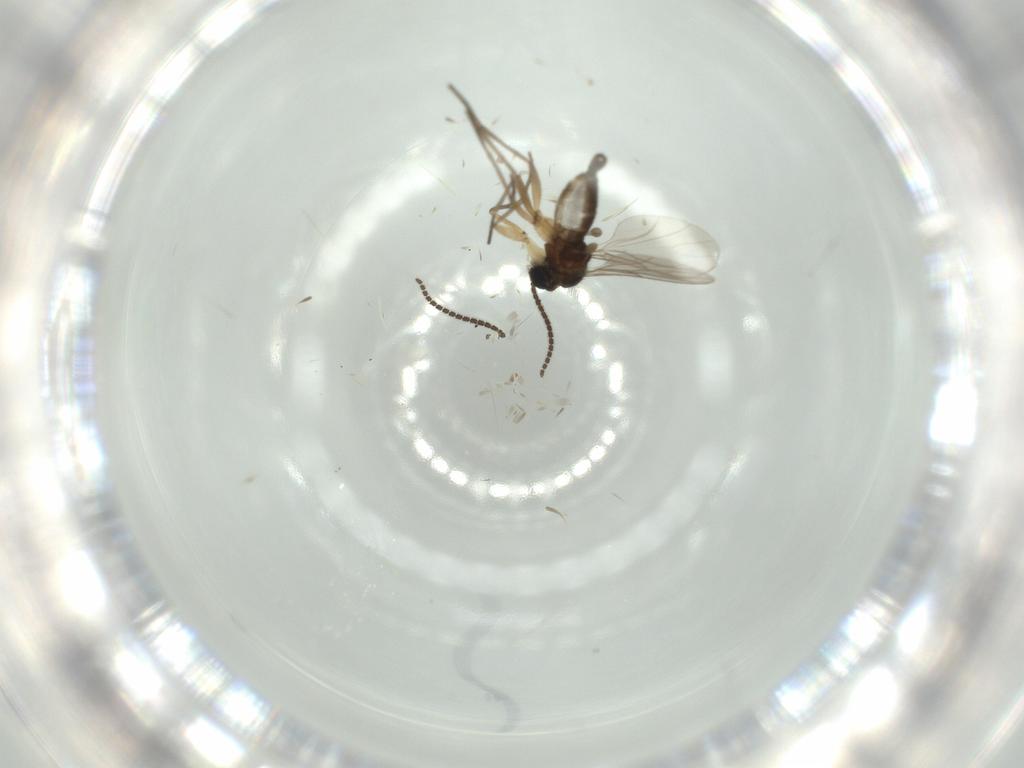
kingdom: Animalia
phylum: Arthropoda
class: Insecta
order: Diptera
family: Sciaridae
